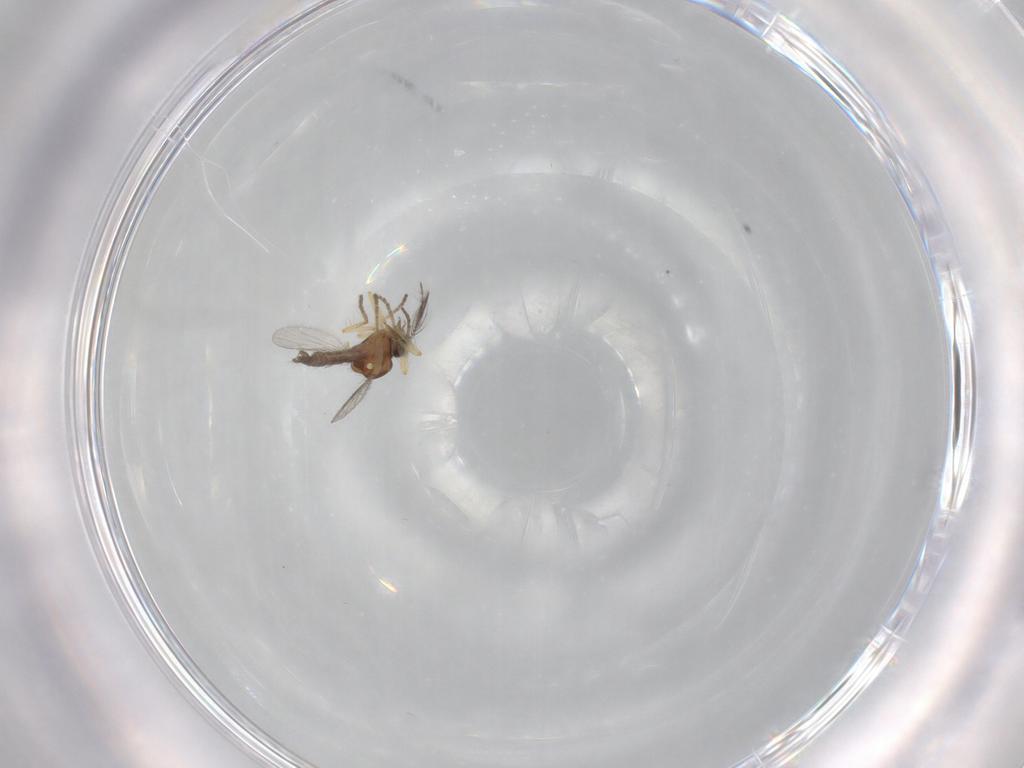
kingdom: Animalia
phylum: Arthropoda
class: Insecta
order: Diptera
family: Ceratopogonidae
